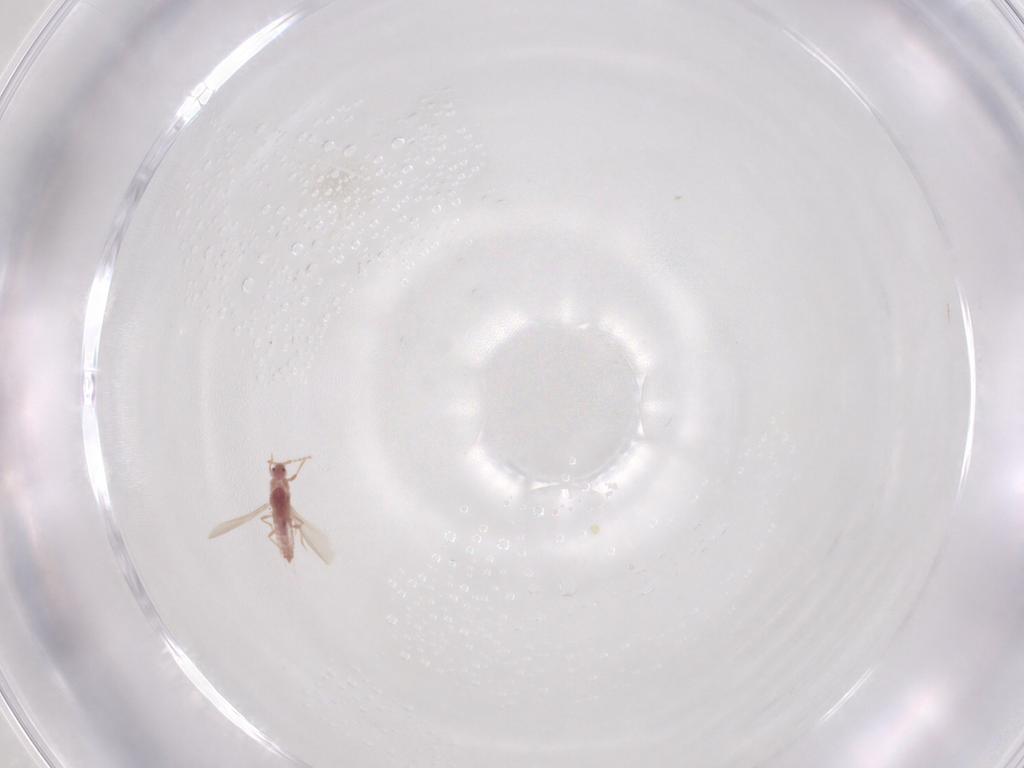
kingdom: Animalia
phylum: Arthropoda
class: Insecta
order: Hemiptera
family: Pseudococcidae
